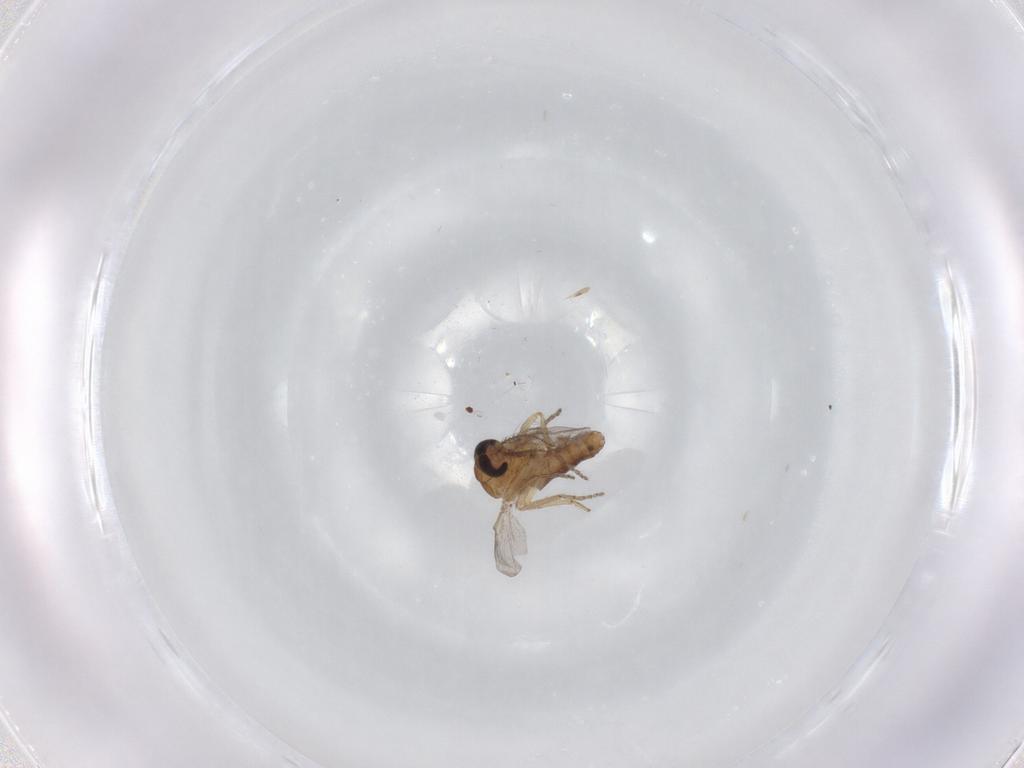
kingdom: Animalia
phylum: Arthropoda
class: Insecta
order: Diptera
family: Ceratopogonidae
